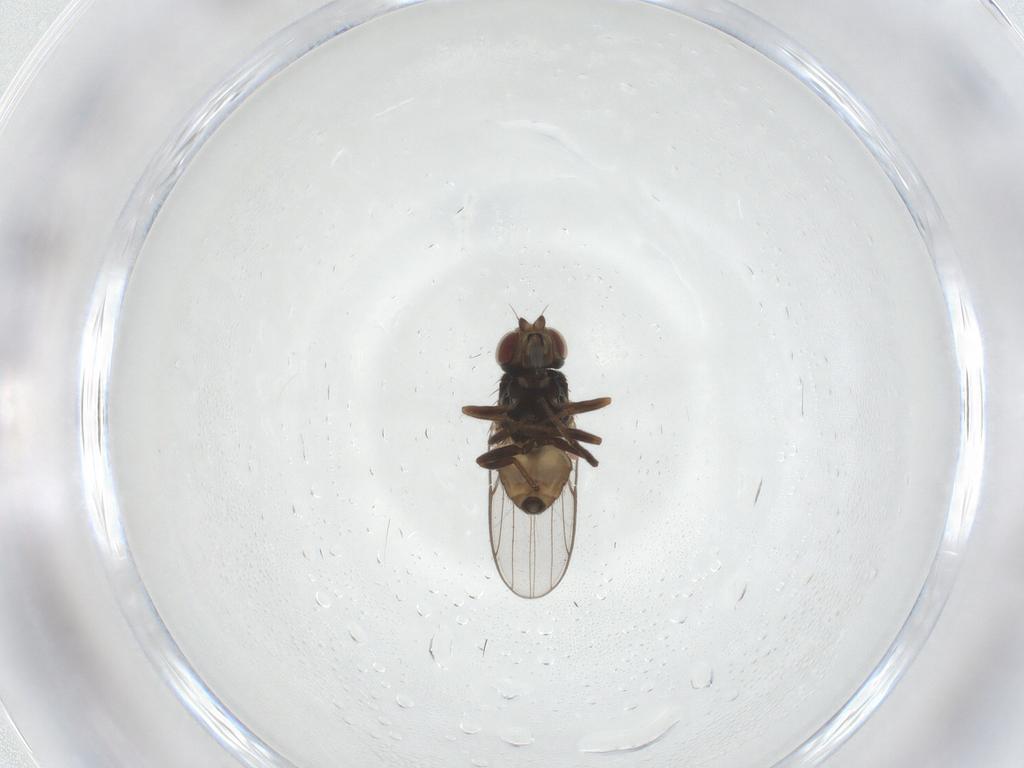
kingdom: Animalia
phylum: Arthropoda
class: Insecta
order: Diptera
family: Chloropidae
